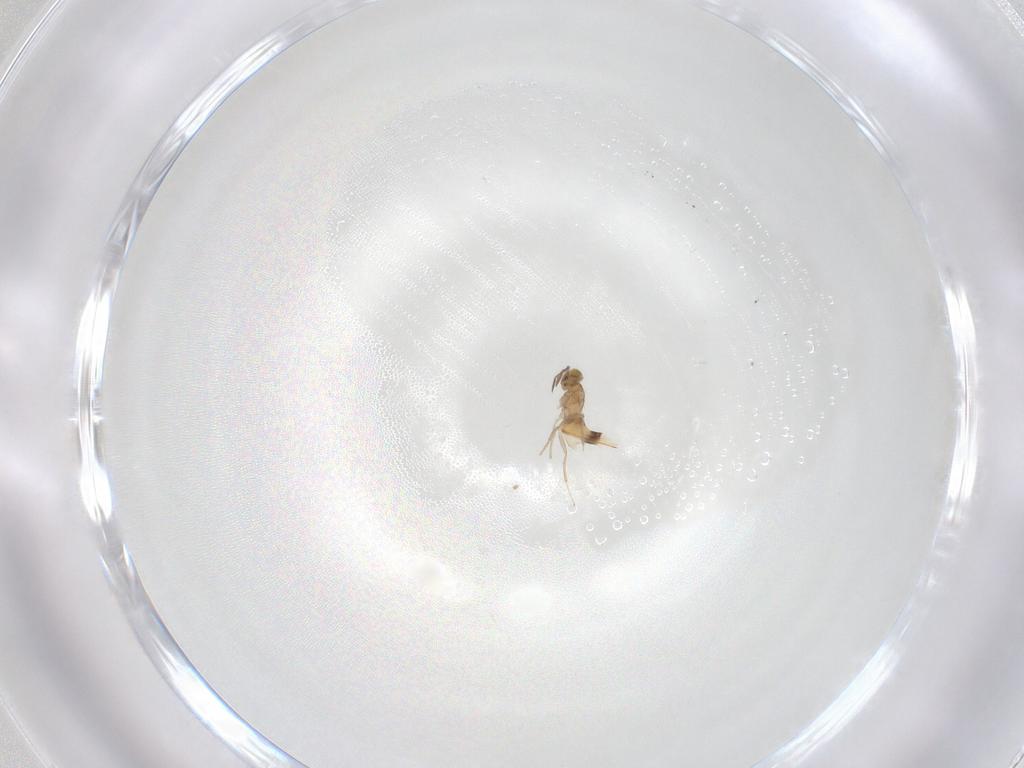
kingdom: Animalia
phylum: Arthropoda
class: Insecta
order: Hymenoptera
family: Aphelinidae
